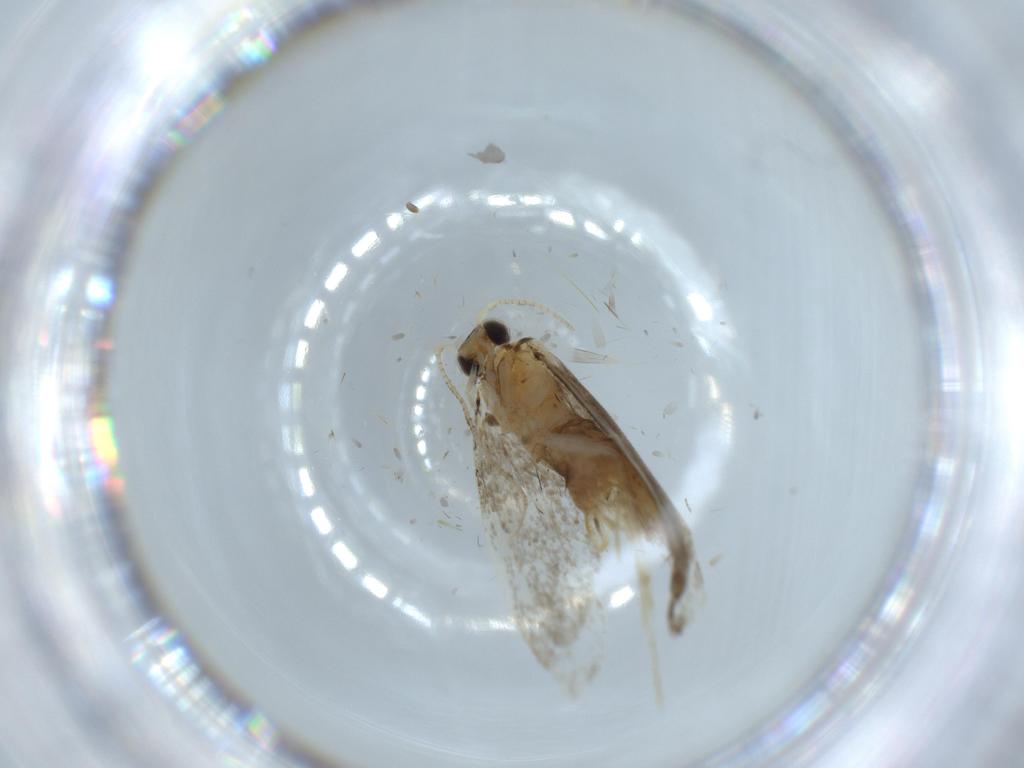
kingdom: Animalia
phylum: Arthropoda
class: Insecta
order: Lepidoptera
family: Tineidae
